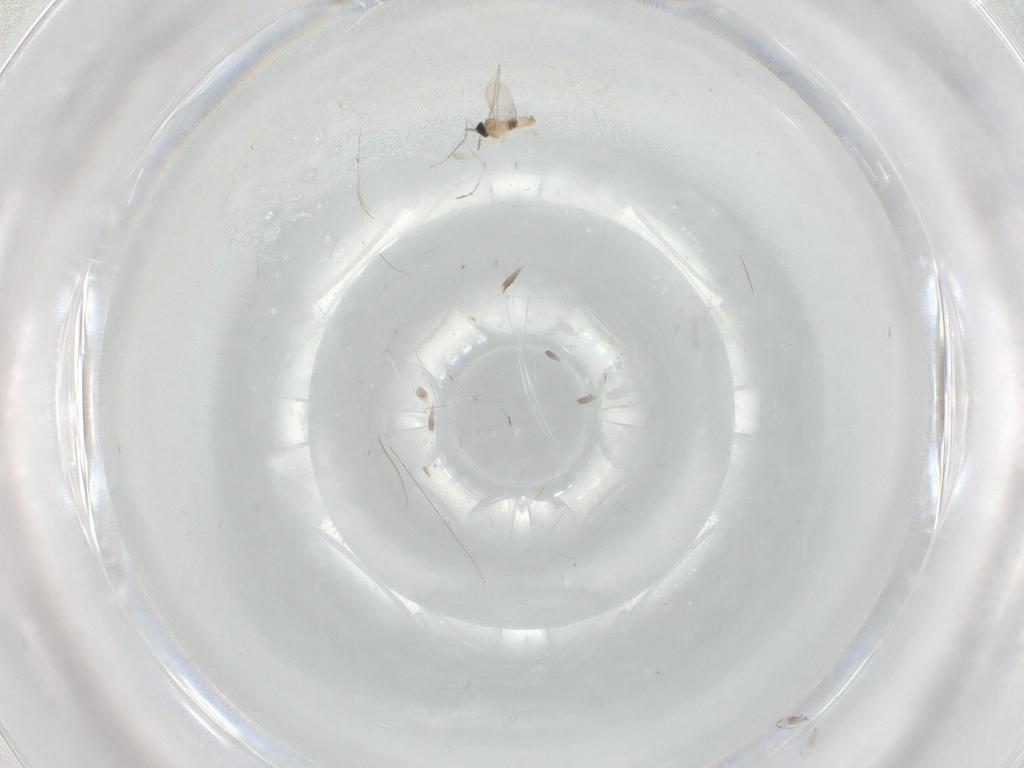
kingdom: Animalia
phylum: Arthropoda
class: Insecta
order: Diptera
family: Cecidomyiidae
